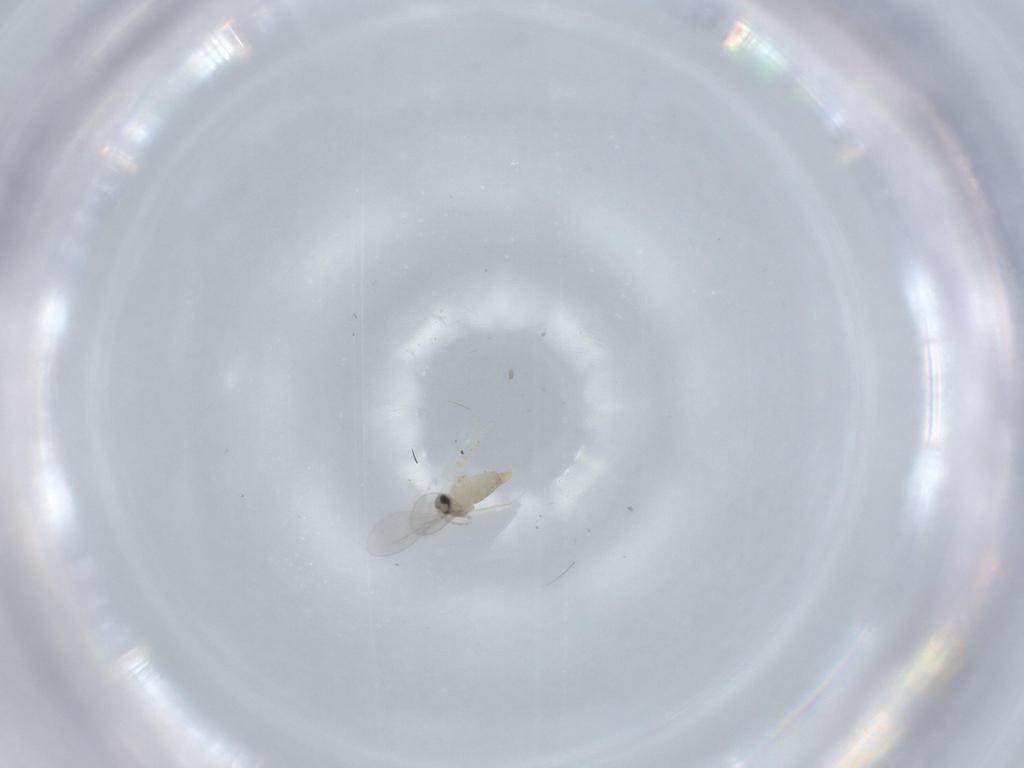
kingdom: Animalia
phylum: Arthropoda
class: Insecta
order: Diptera
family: Cecidomyiidae
